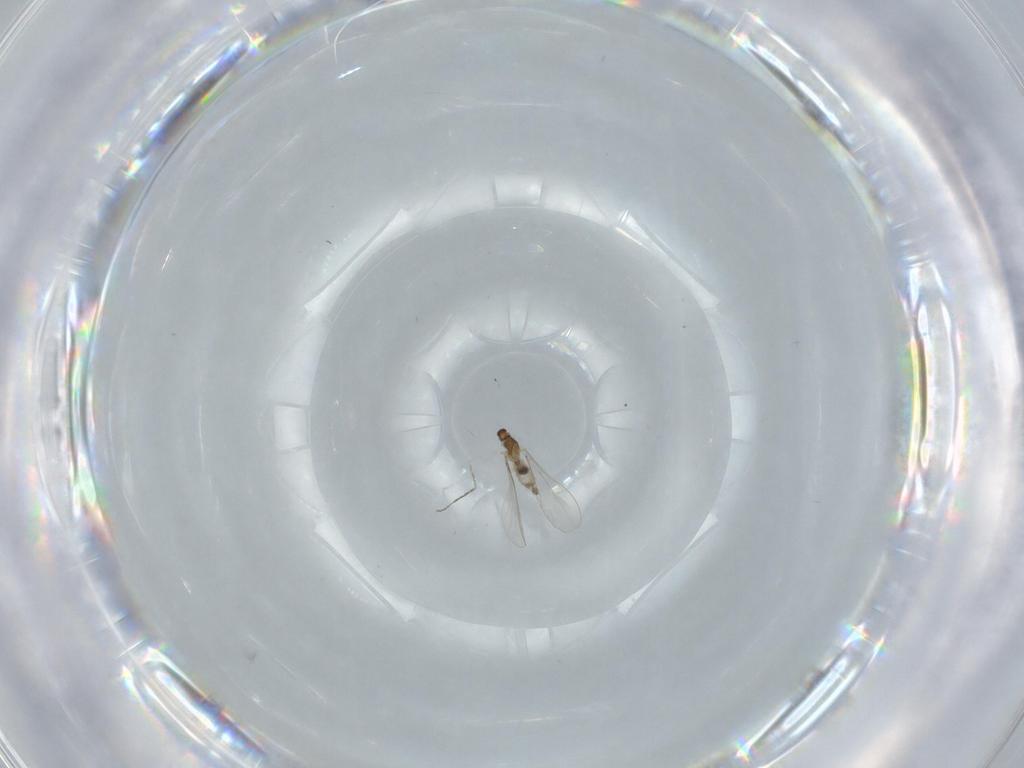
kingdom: Animalia
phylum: Arthropoda
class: Insecta
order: Diptera
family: Cecidomyiidae
